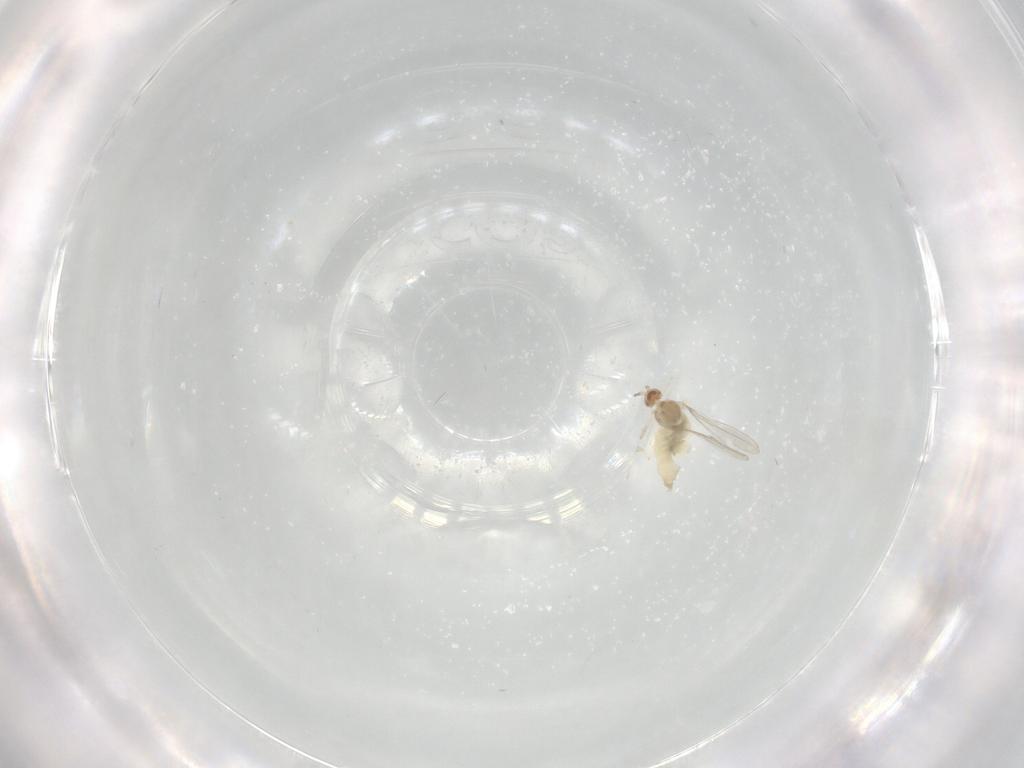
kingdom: Animalia
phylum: Arthropoda
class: Insecta
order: Diptera
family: Cecidomyiidae
